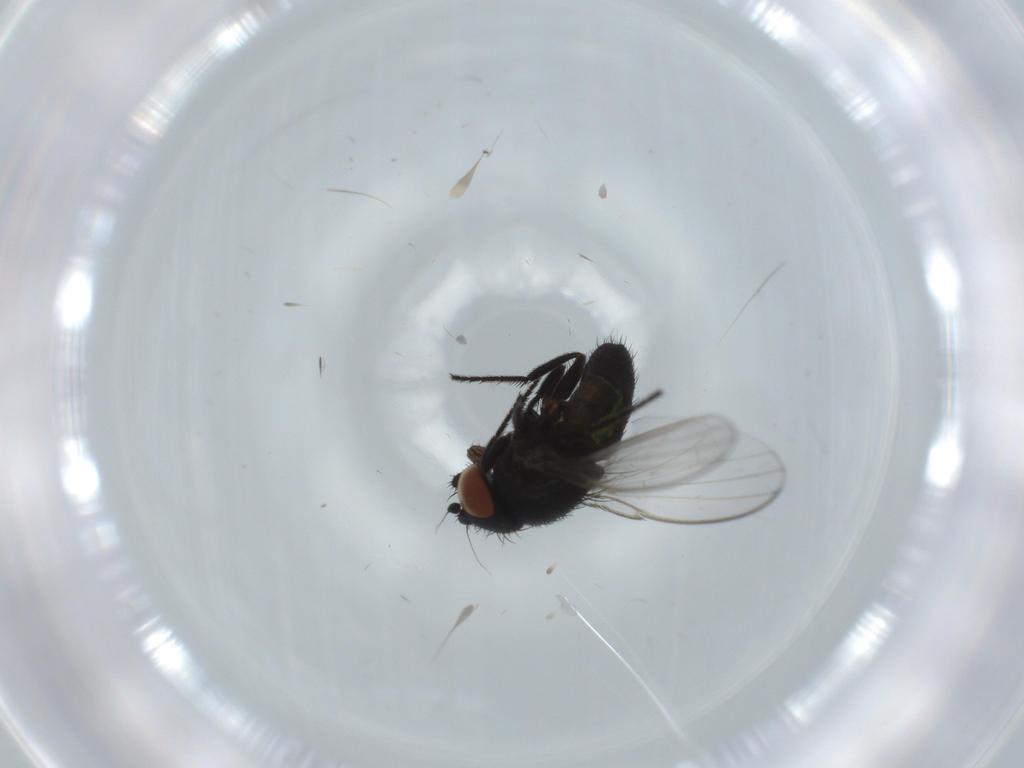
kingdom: Animalia
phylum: Arthropoda
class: Insecta
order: Diptera
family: Milichiidae
